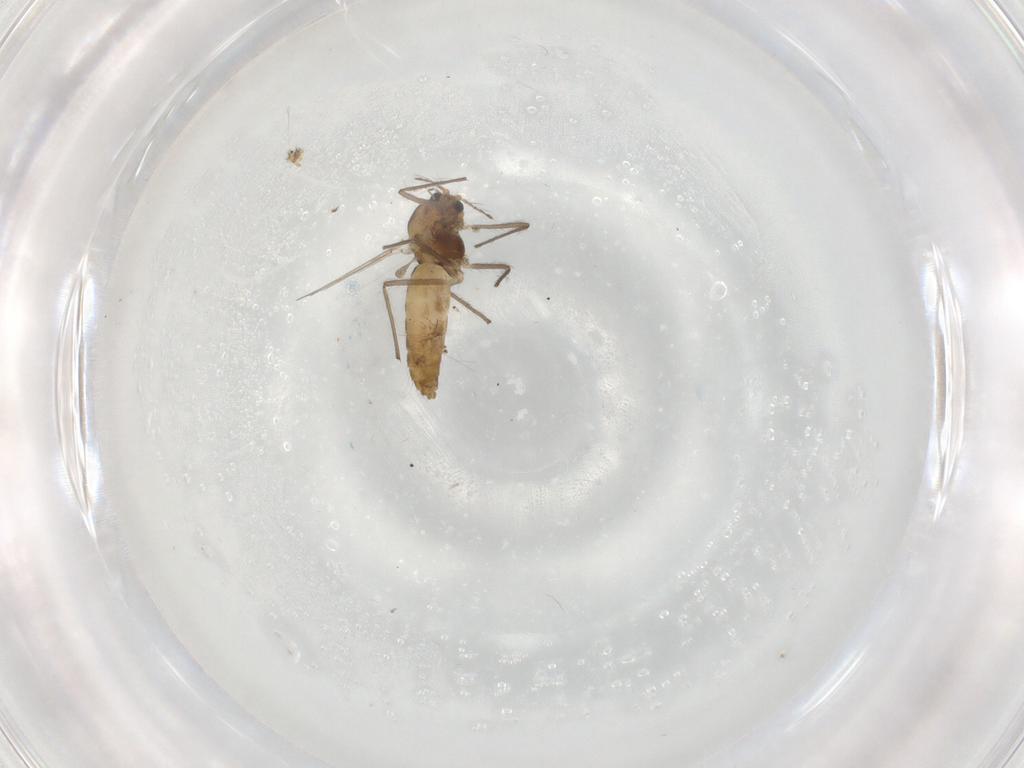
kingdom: Animalia
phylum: Arthropoda
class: Insecta
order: Diptera
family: Chironomidae
